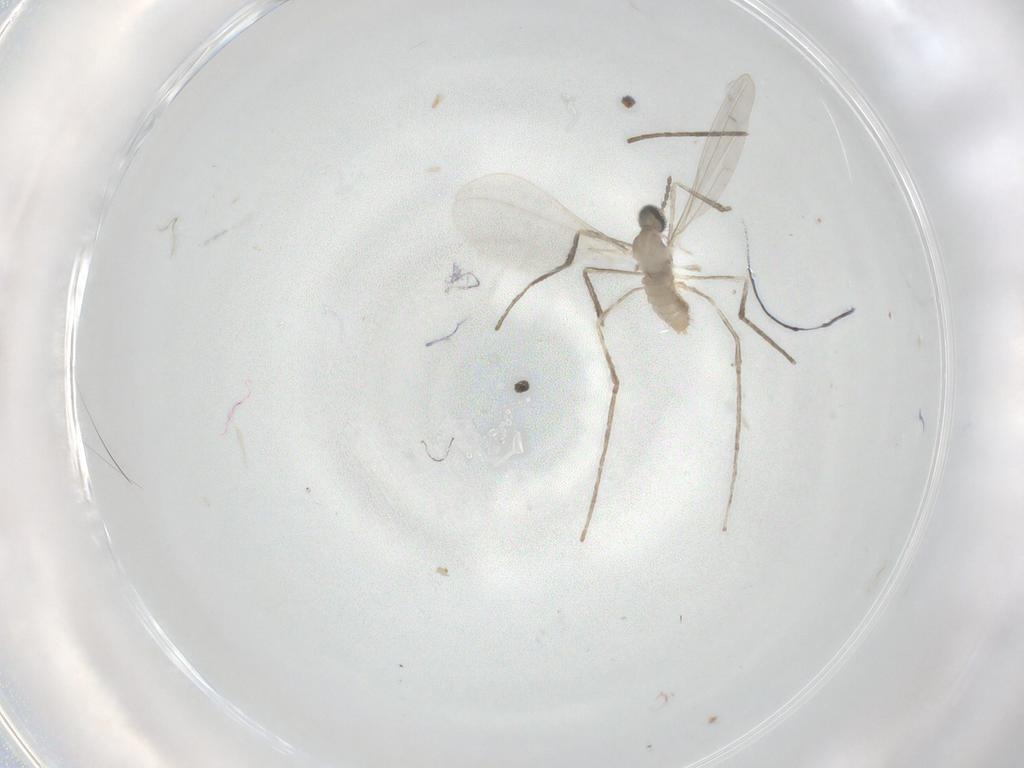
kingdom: Animalia
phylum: Arthropoda
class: Insecta
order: Diptera
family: Cecidomyiidae
